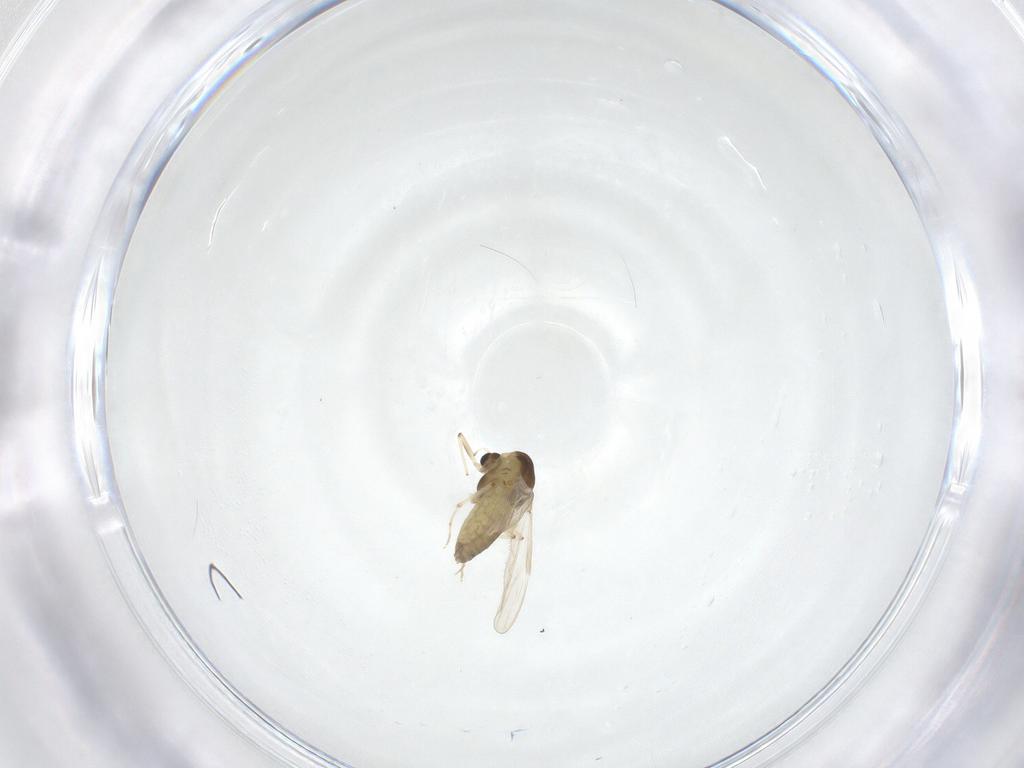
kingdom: Animalia
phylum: Arthropoda
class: Insecta
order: Diptera
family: Chironomidae
